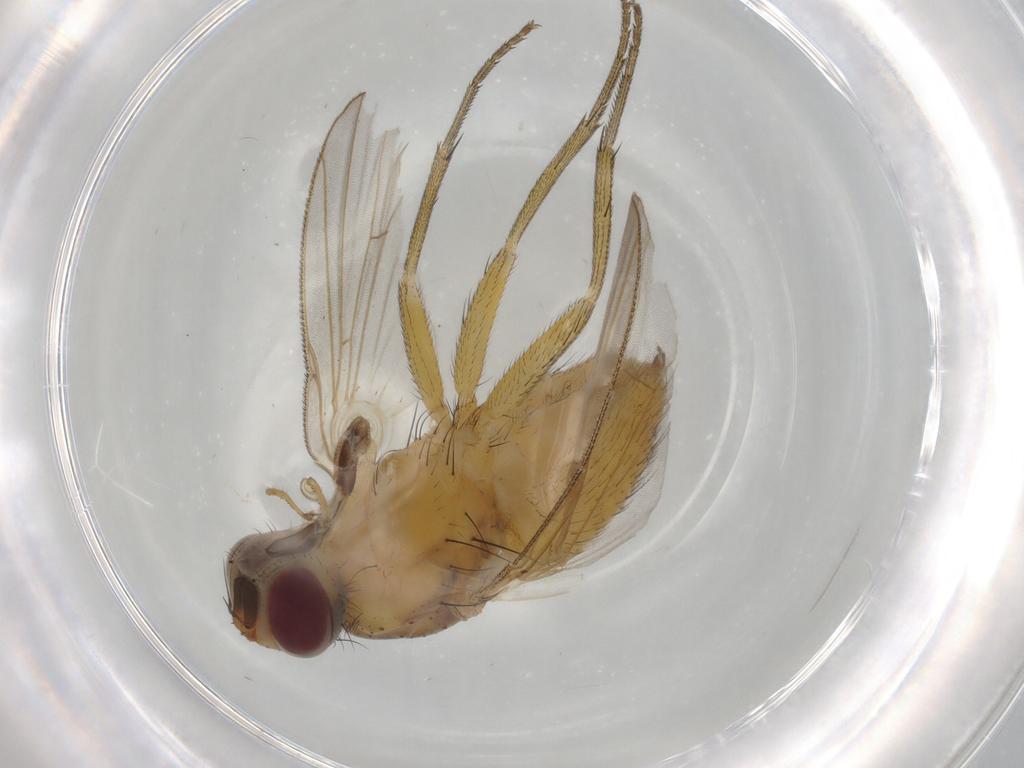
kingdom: Animalia
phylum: Arthropoda
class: Insecta
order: Diptera
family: Muscidae
